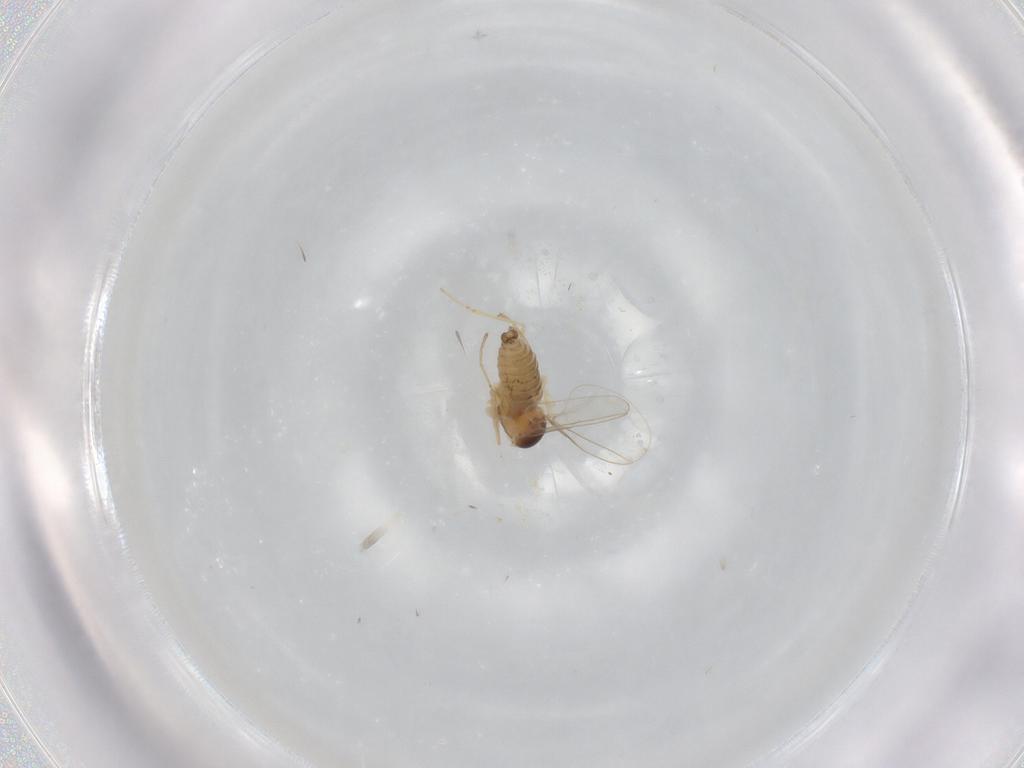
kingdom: Animalia
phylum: Arthropoda
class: Insecta
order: Diptera
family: Cecidomyiidae
